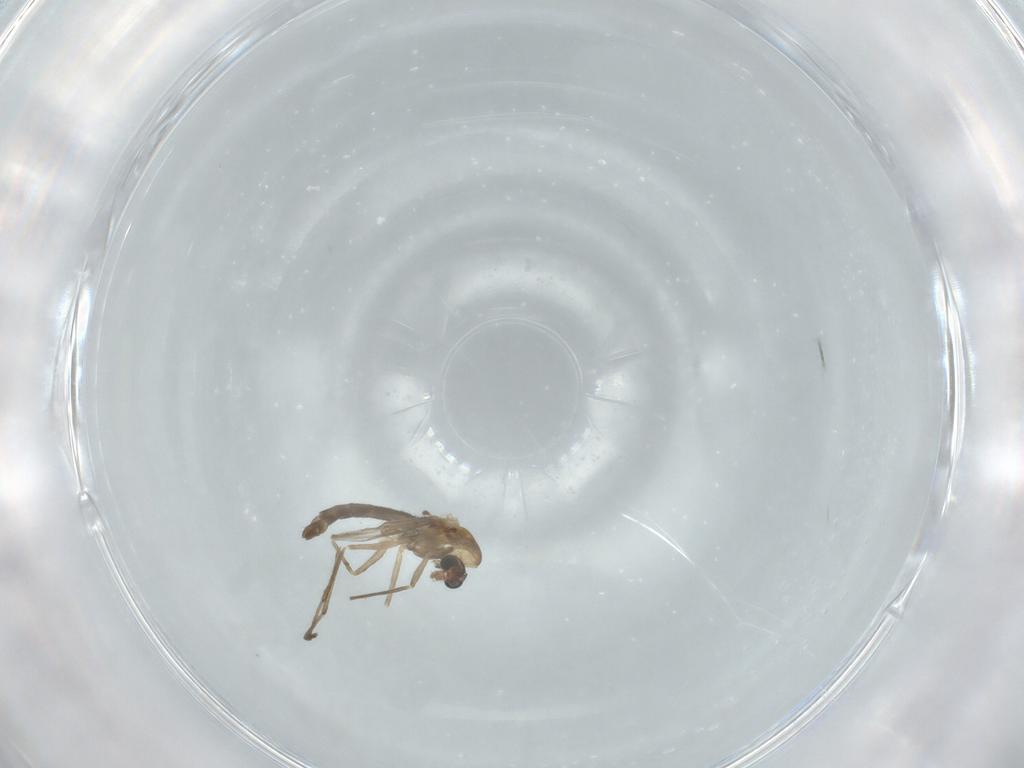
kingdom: Animalia
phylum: Arthropoda
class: Insecta
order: Diptera
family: Chironomidae
